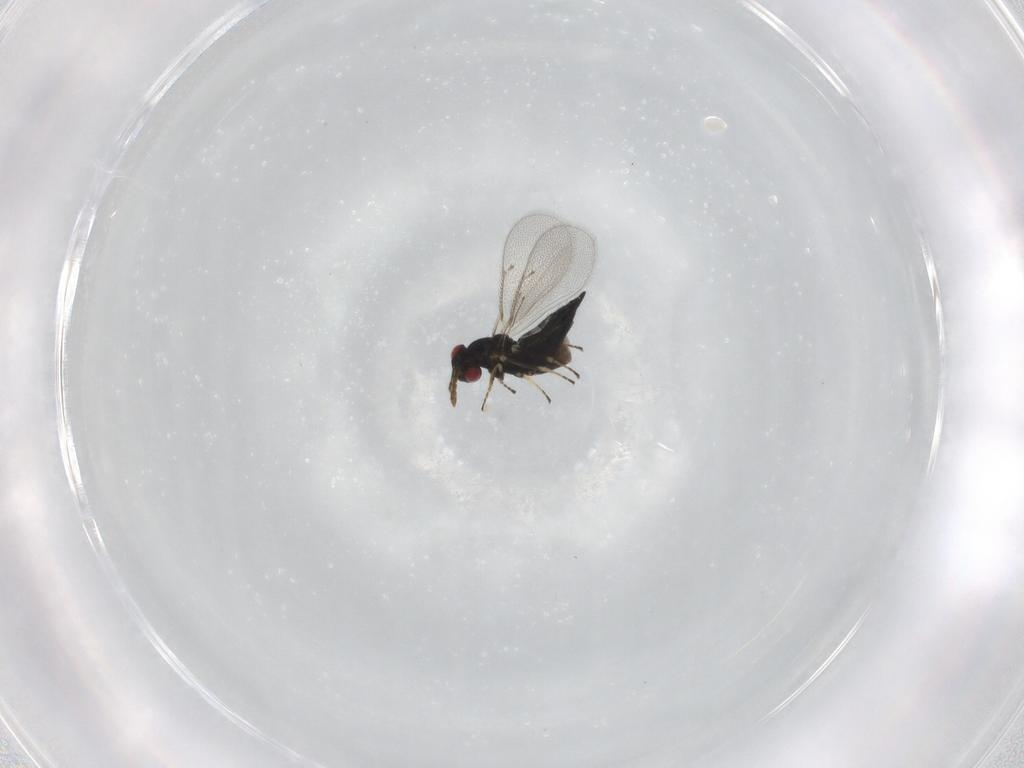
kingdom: Animalia
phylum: Arthropoda
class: Insecta
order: Hymenoptera
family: Eulophidae
